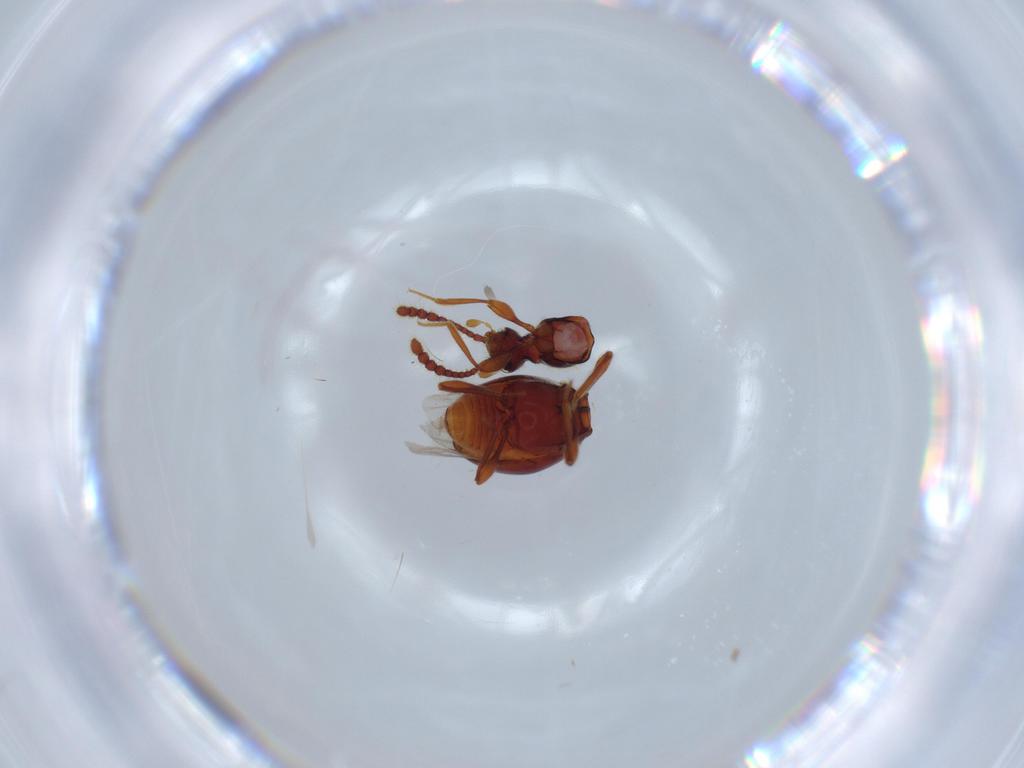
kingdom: Animalia
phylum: Arthropoda
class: Insecta
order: Coleoptera
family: Staphylinidae
